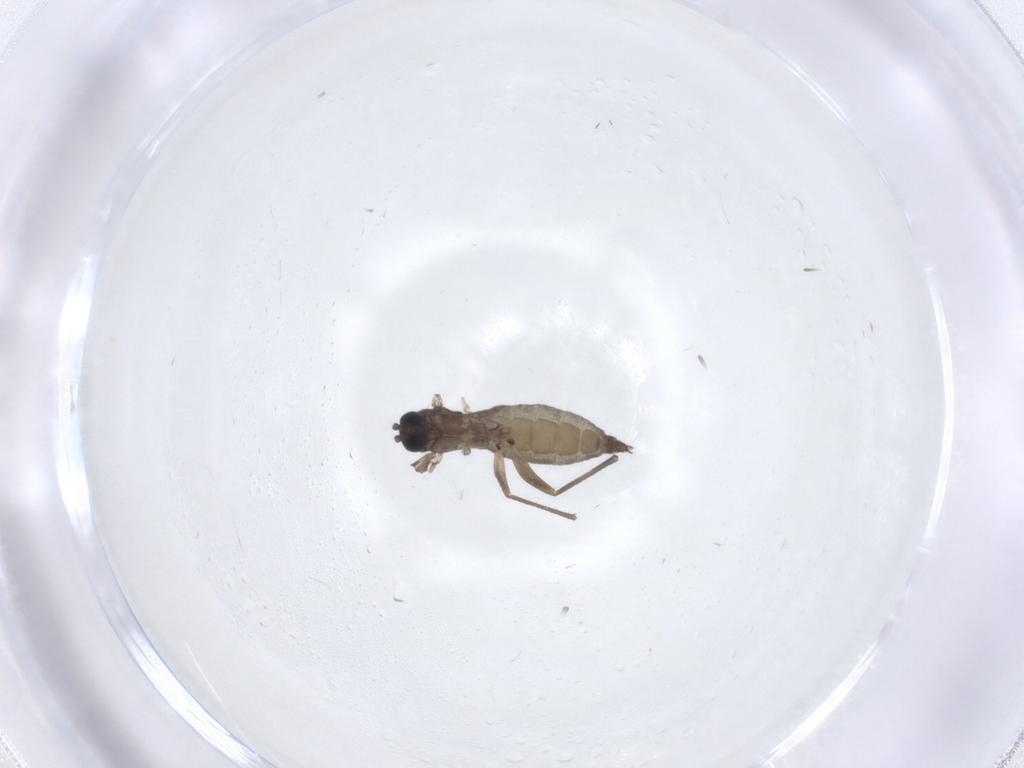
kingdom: Animalia
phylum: Arthropoda
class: Insecta
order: Diptera
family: Sciaridae
